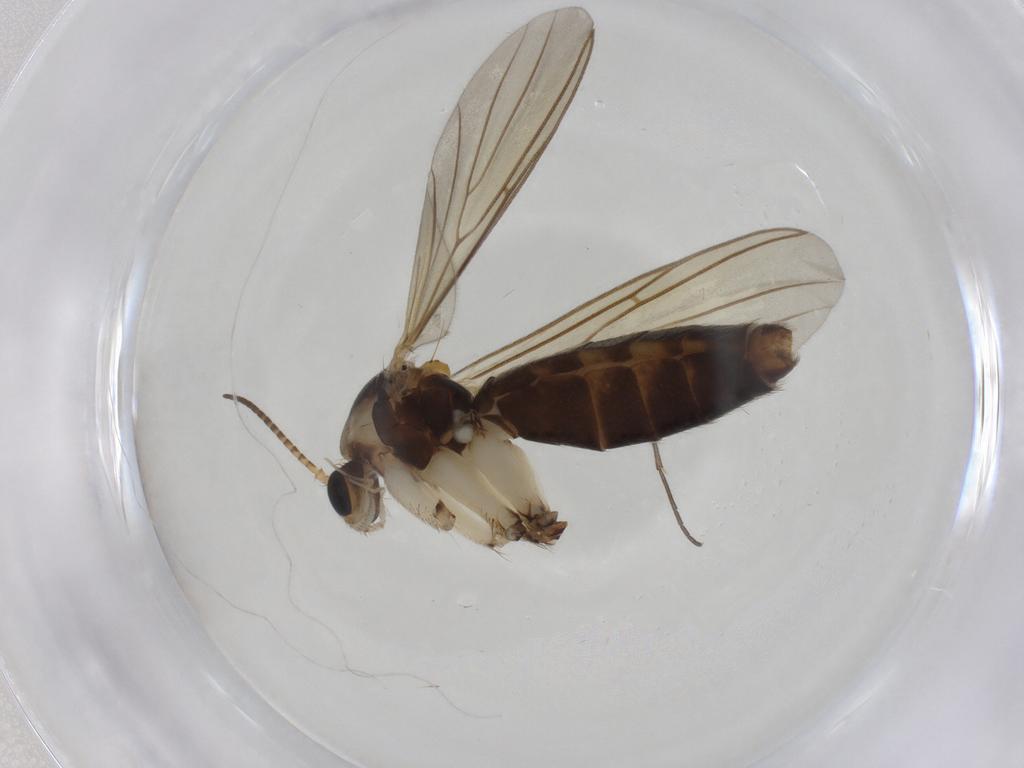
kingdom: Animalia
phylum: Arthropoda
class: Insecta
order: Diptera
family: Mycetophilidae
